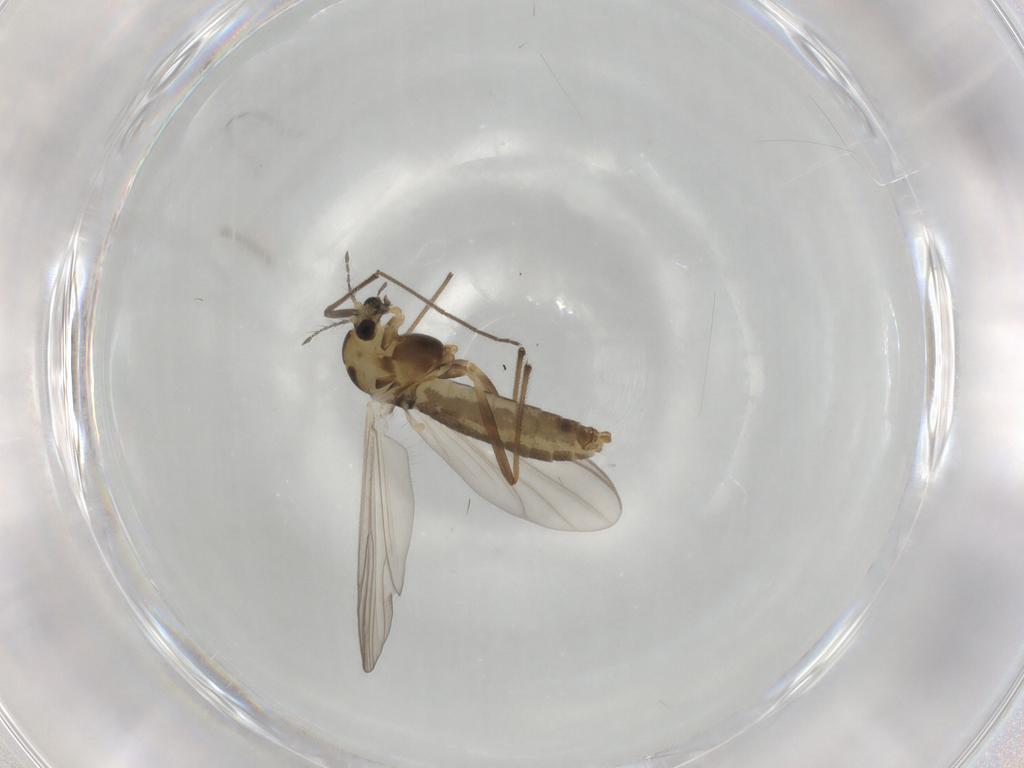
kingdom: Animalia
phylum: Arthropoda
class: Insecta
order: Diptera
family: Chironomidae
